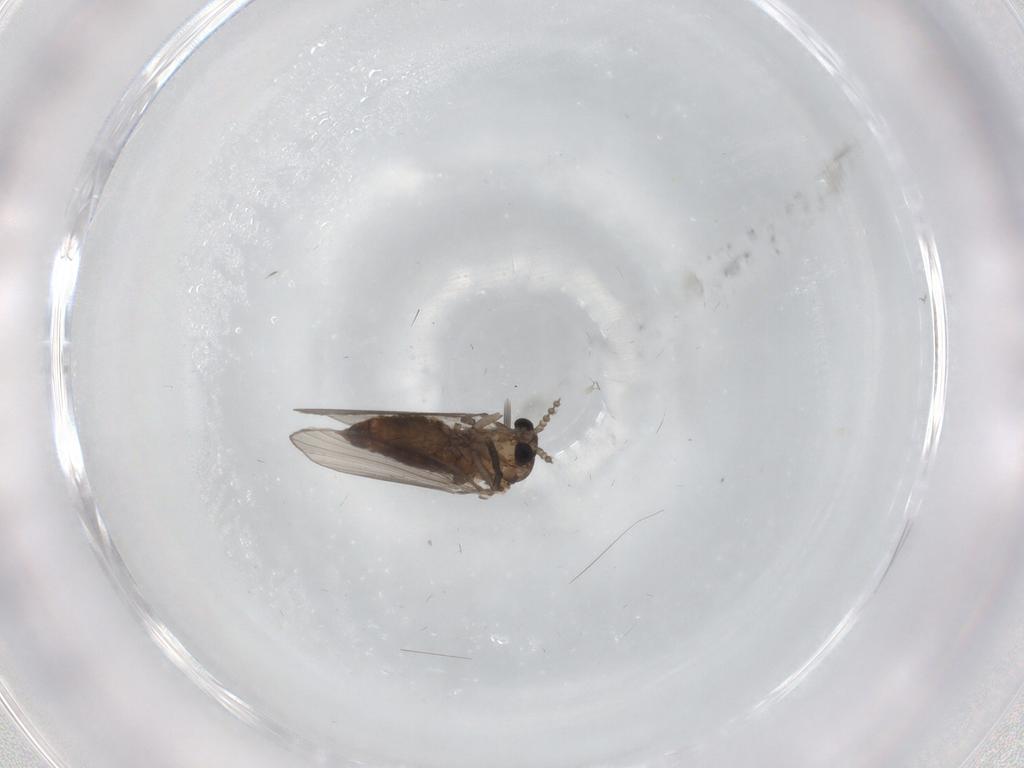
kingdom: Animalia
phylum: Arthropoda
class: Insecta
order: Diptera
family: Psychodidae
